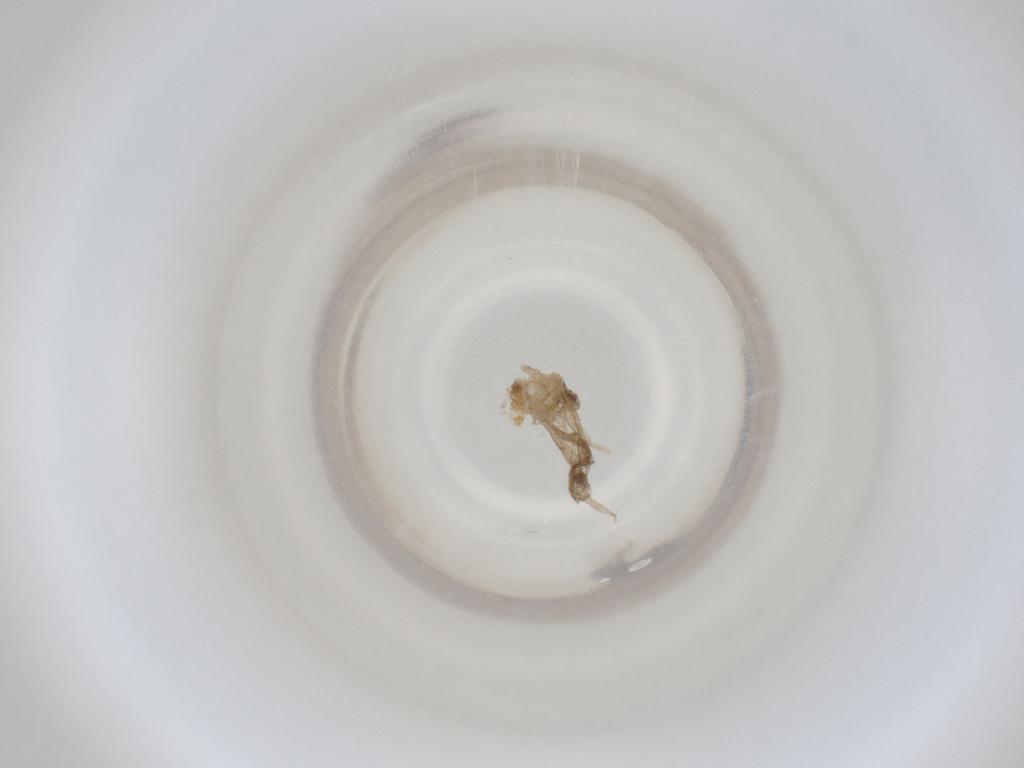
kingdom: Animalia
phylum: Arthropoda
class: Insecta
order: Diptera
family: Cecidomyiidae
